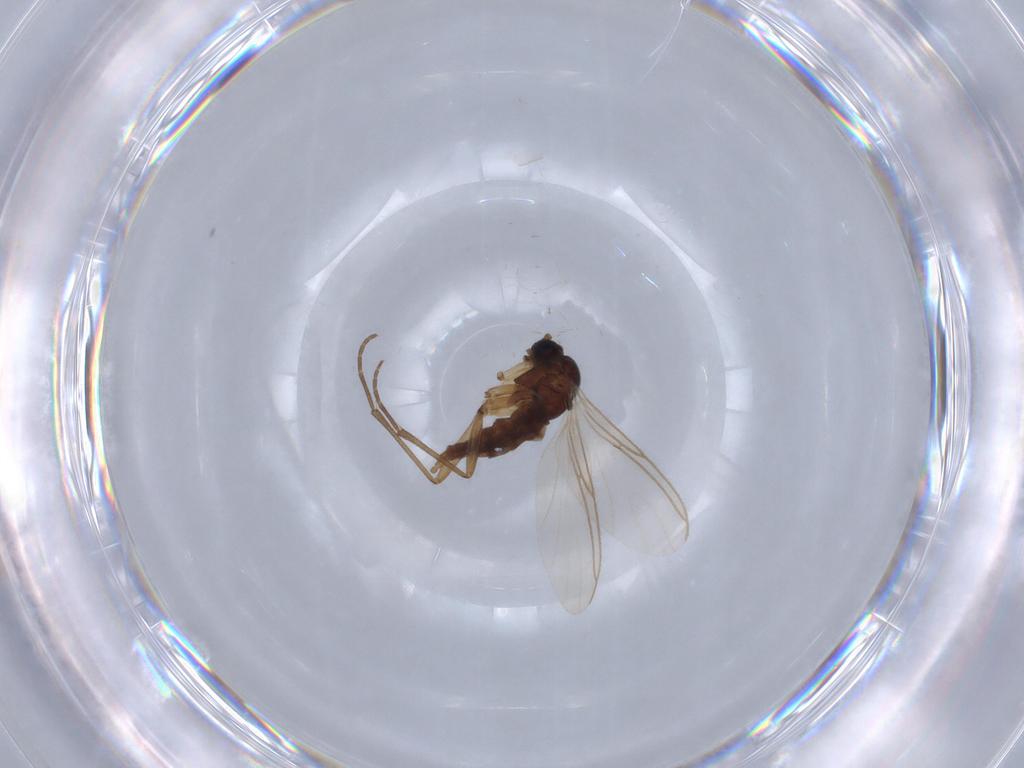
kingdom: Animalia
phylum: Arthropoda
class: Insecta
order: Diptera
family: Sciaridae
